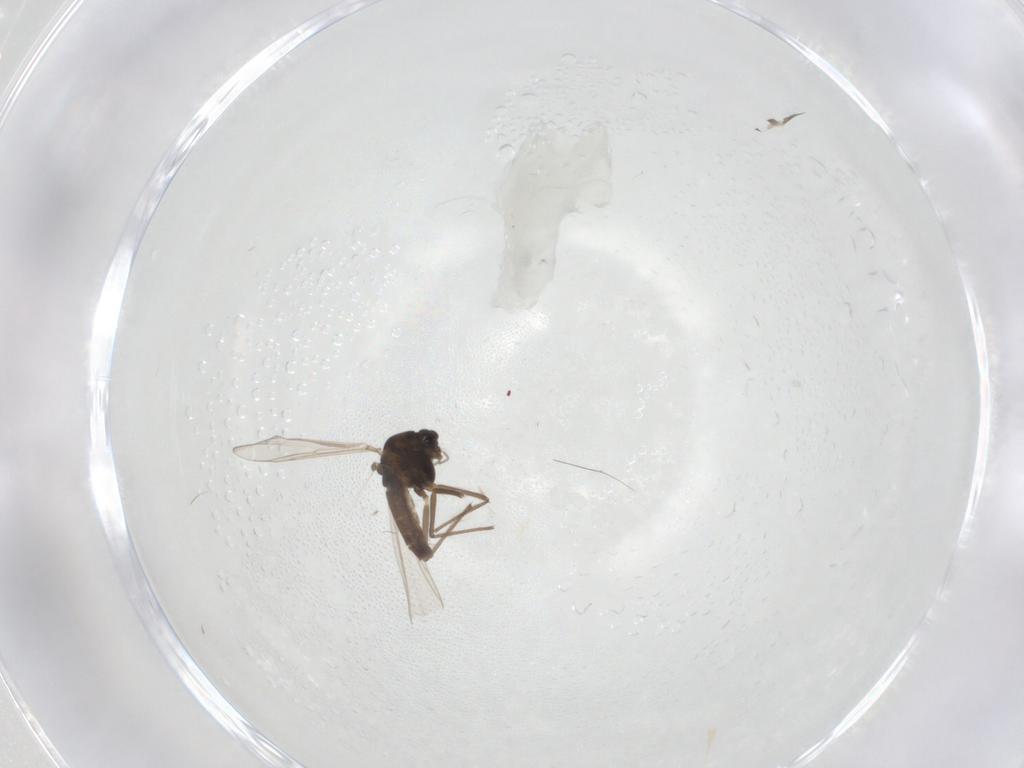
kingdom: Animalia
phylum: Arthropoda
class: Insecta
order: Diptera
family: Chironomidae
